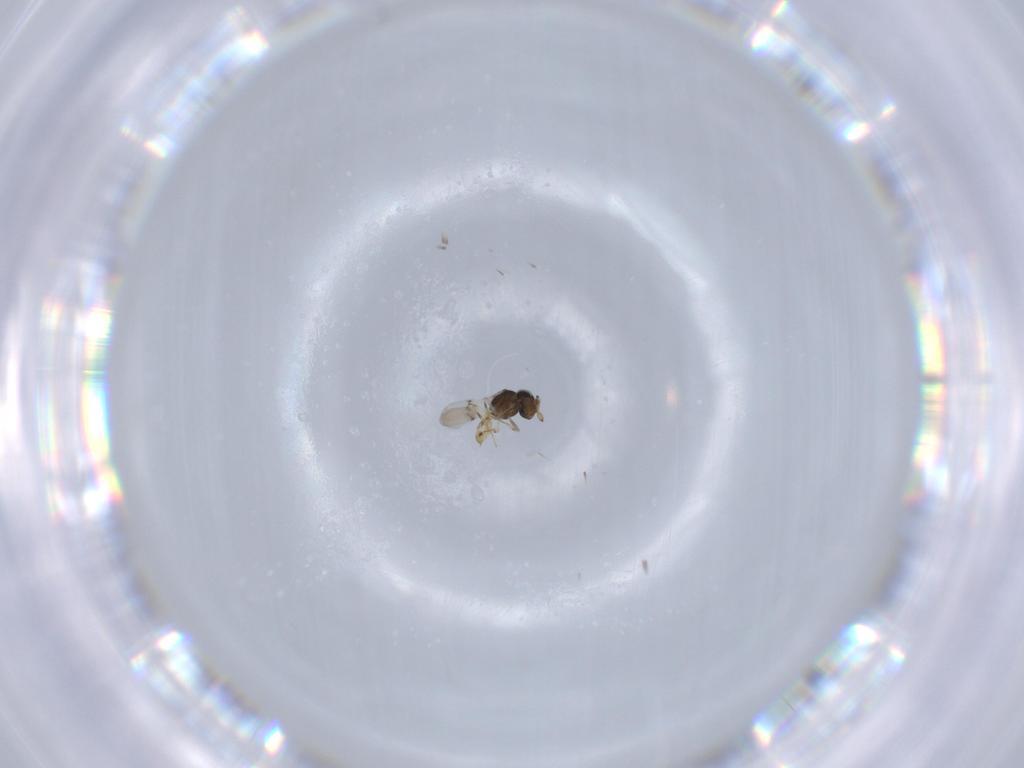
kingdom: Animalia
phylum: Arthropoda
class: Insecta
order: Hymenoptera
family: Scelionidae
